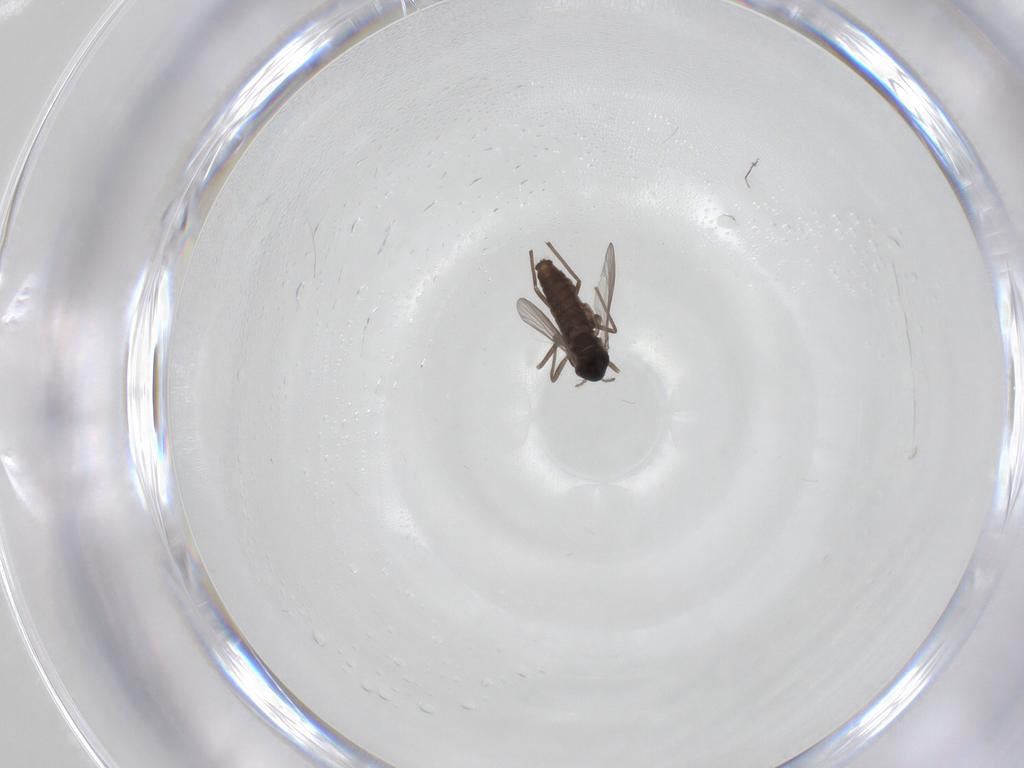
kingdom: Animalia
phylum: Arthropoda
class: Insecta
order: Diptera
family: Chironomidae
